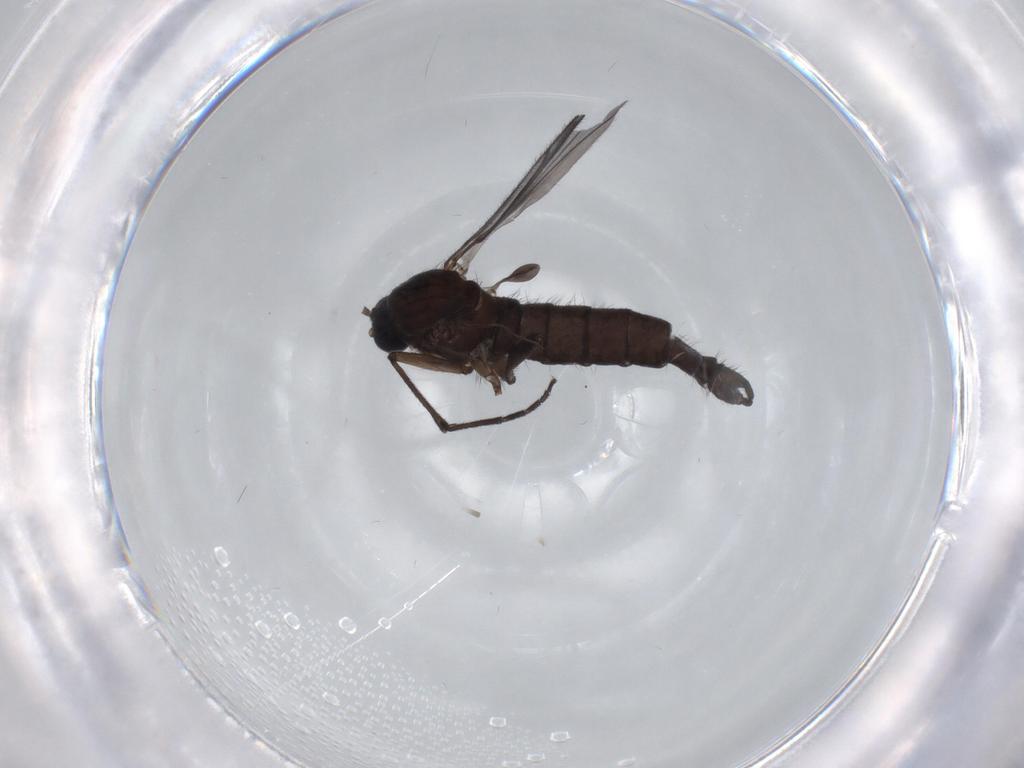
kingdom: Animalia
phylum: Arthropoda
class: Insecta
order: Diptera
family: Sciaridae
